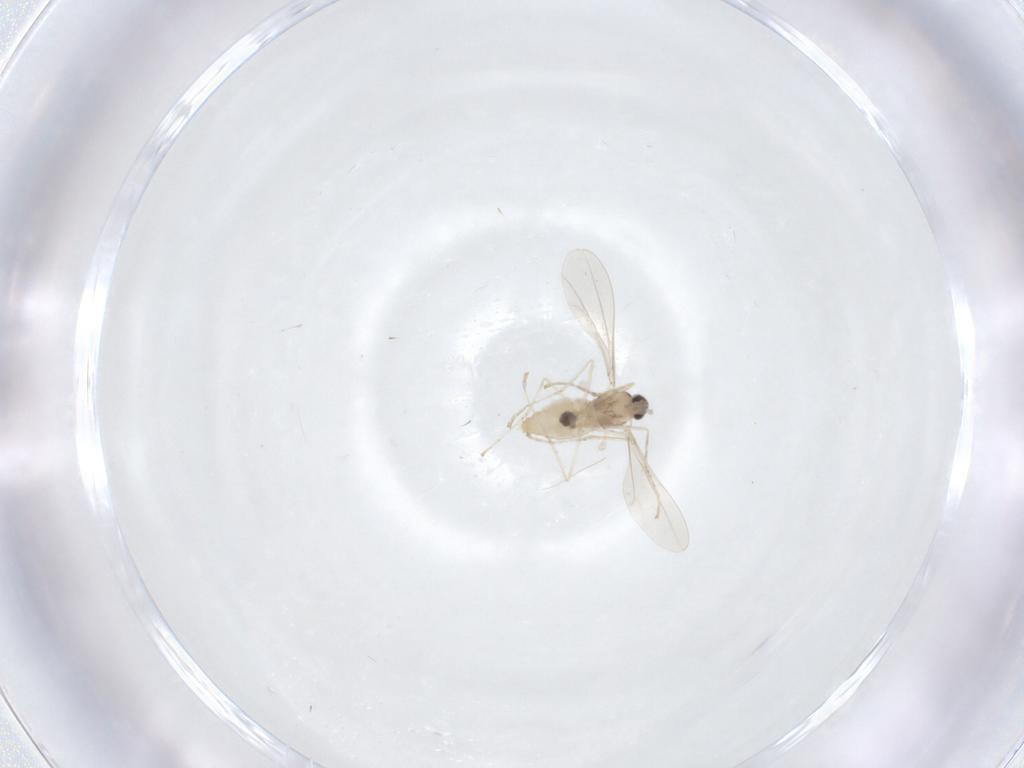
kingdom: Animalia
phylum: Arthropoda
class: Insecta
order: Diptera
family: Cecidomyiidae
